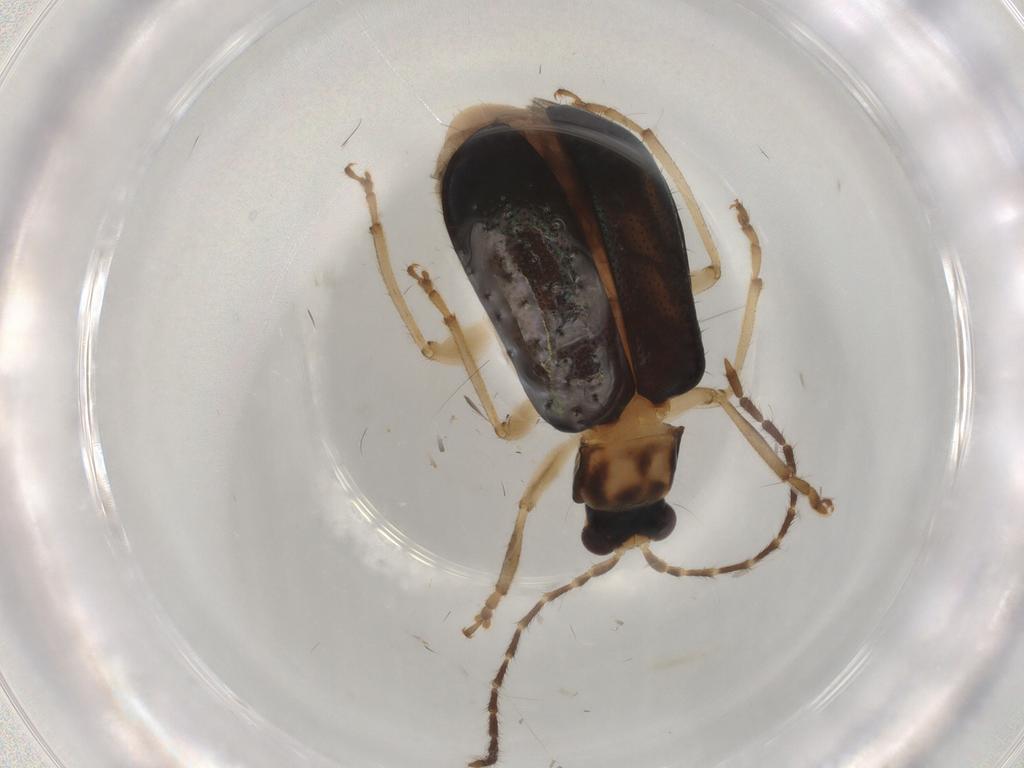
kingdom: Animalia
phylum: Arthropoda
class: Insecta
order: Coleoptera
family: Chrysomelidae
